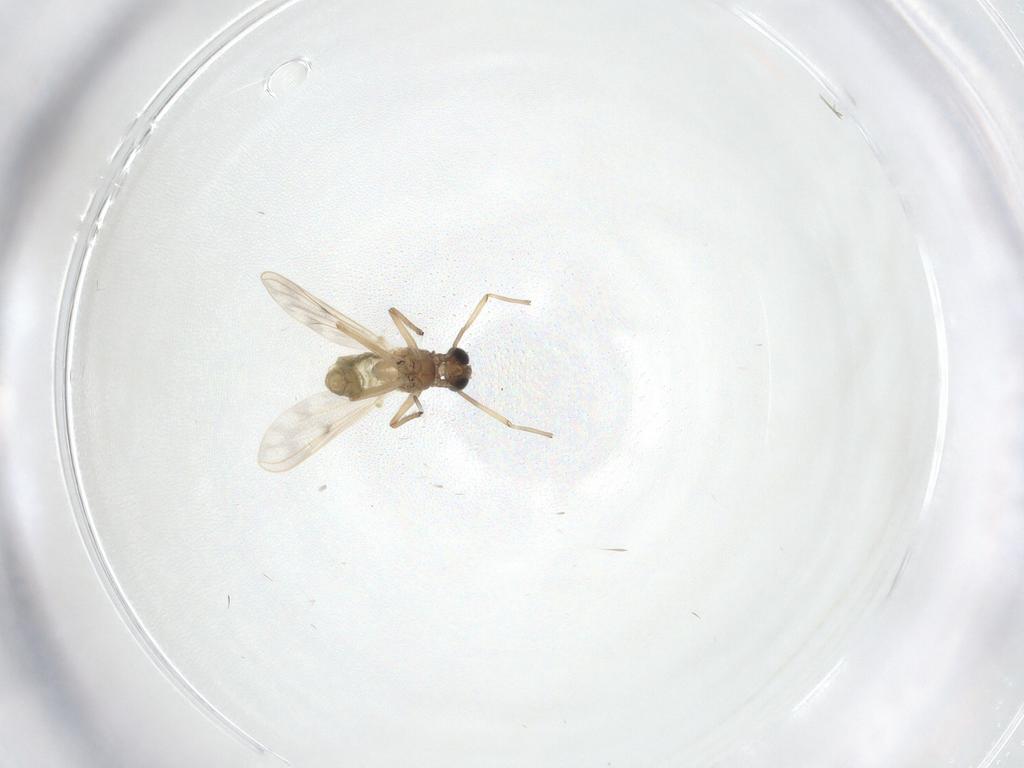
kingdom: Animalia
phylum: Arthropoda
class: Insecta
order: Diptera
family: Chironomidae
